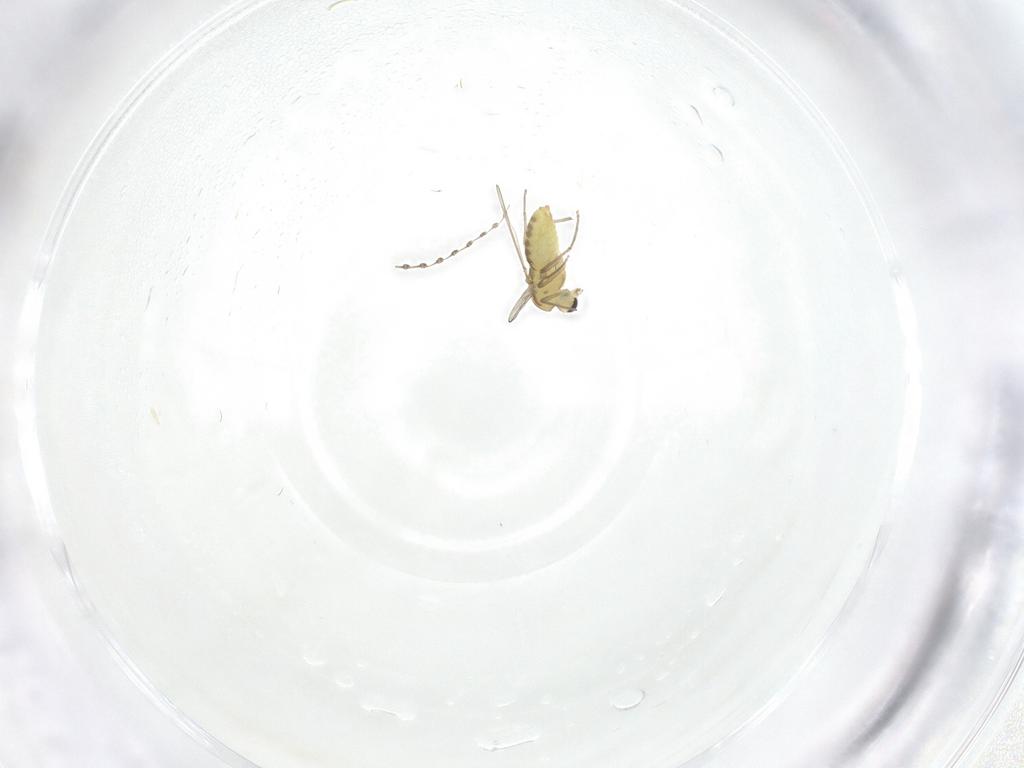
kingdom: Animalia
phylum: Arthropoda
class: Insecta
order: Diptera
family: Chironomidae
